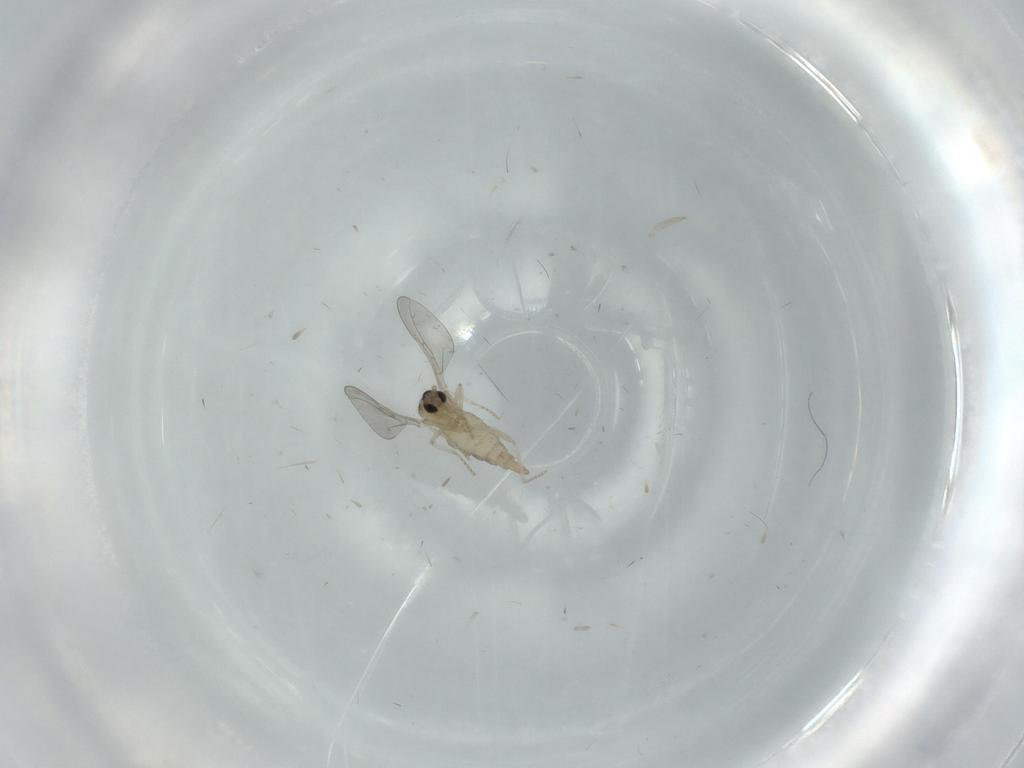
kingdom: Animalia
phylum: Arthropoda
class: Insecta
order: Diptera
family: Cecidomyiidae
